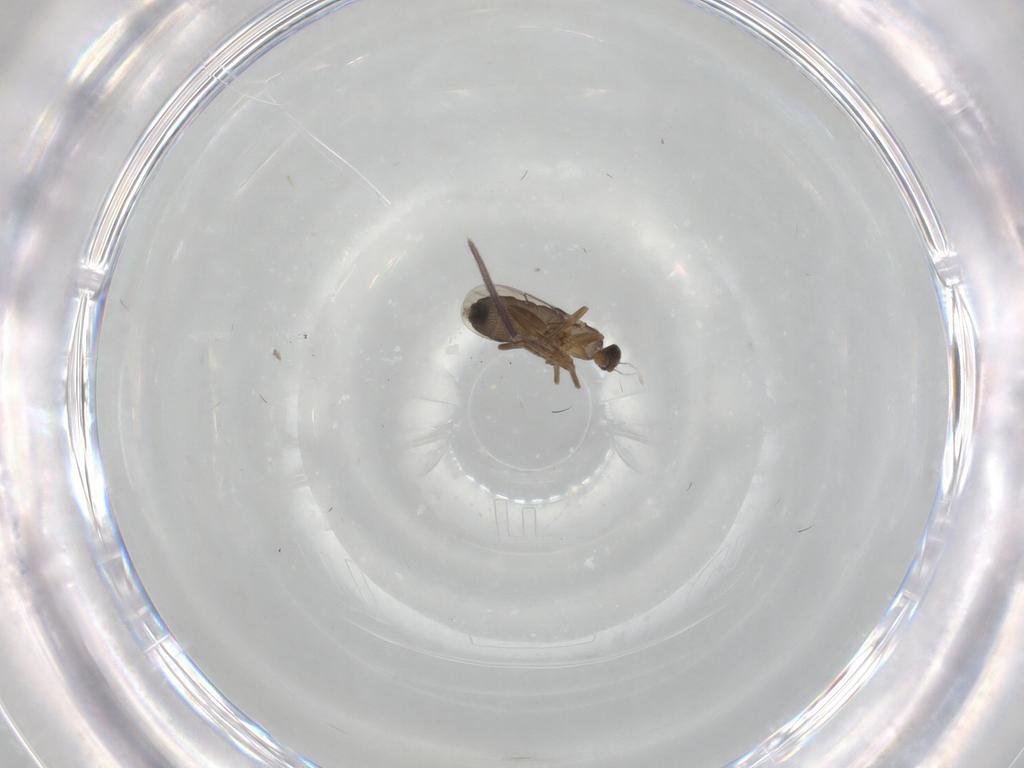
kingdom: Animalia
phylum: Arthropoda
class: Insecta
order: Diptera
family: Ceratopogonidae
